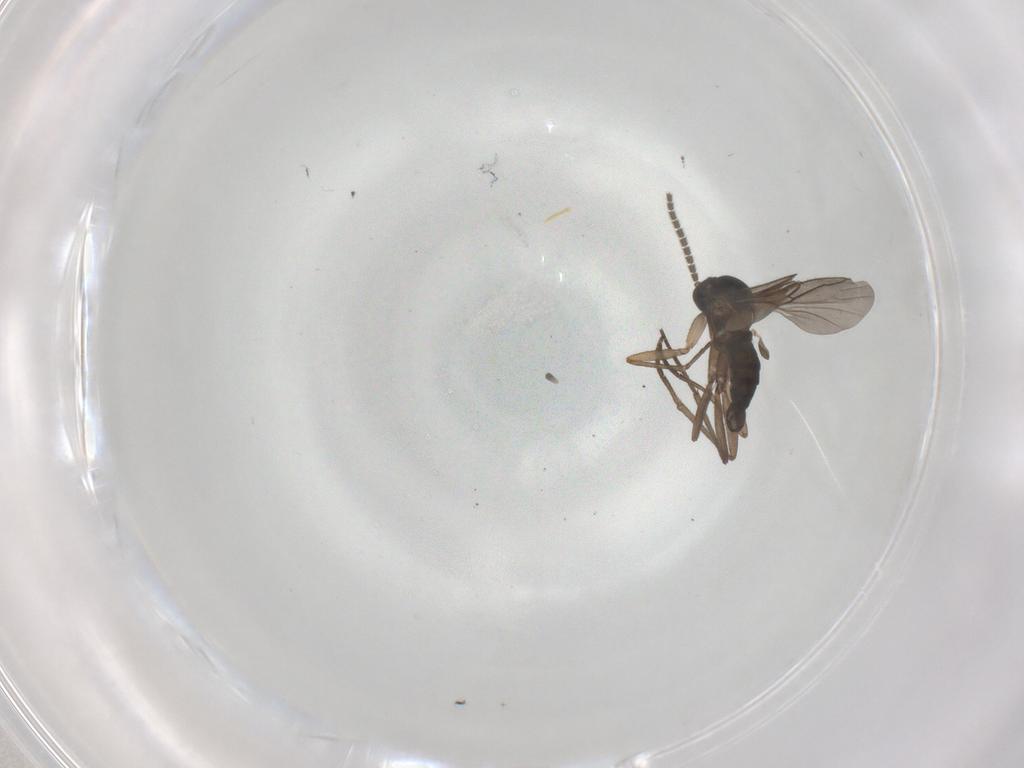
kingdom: Animalia
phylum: Arthropoda
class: Insecta
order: Diptera
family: Sciaridae
